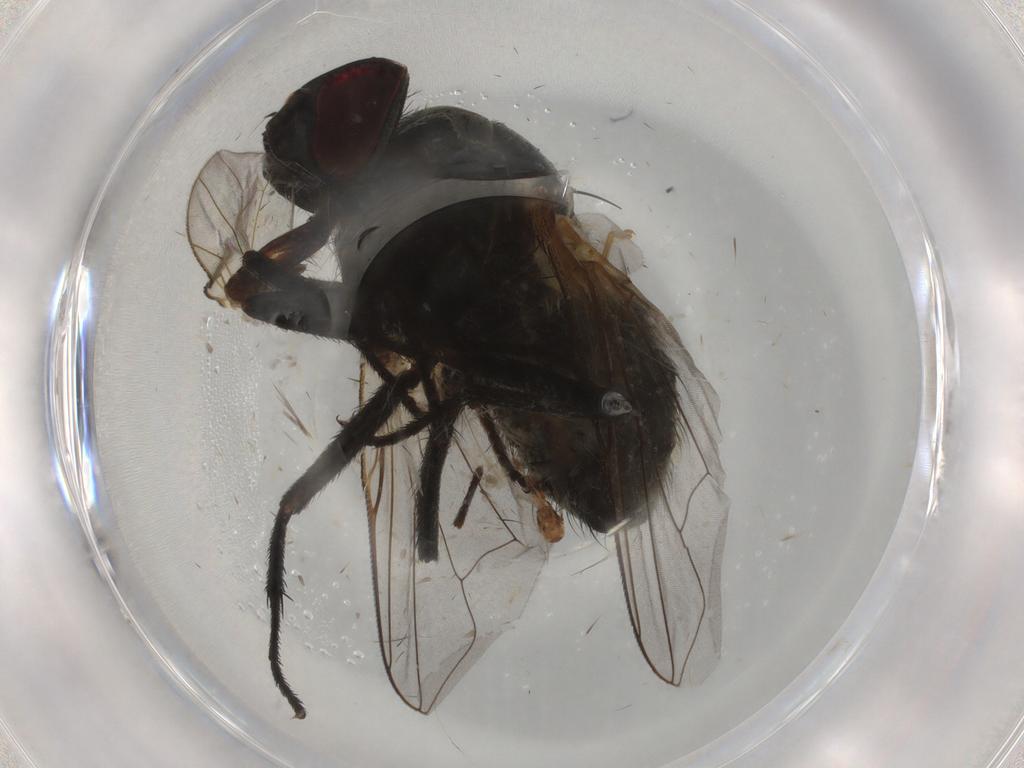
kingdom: Animalia
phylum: Arthropoda
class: Insecta
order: Diptera
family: Muscidae
